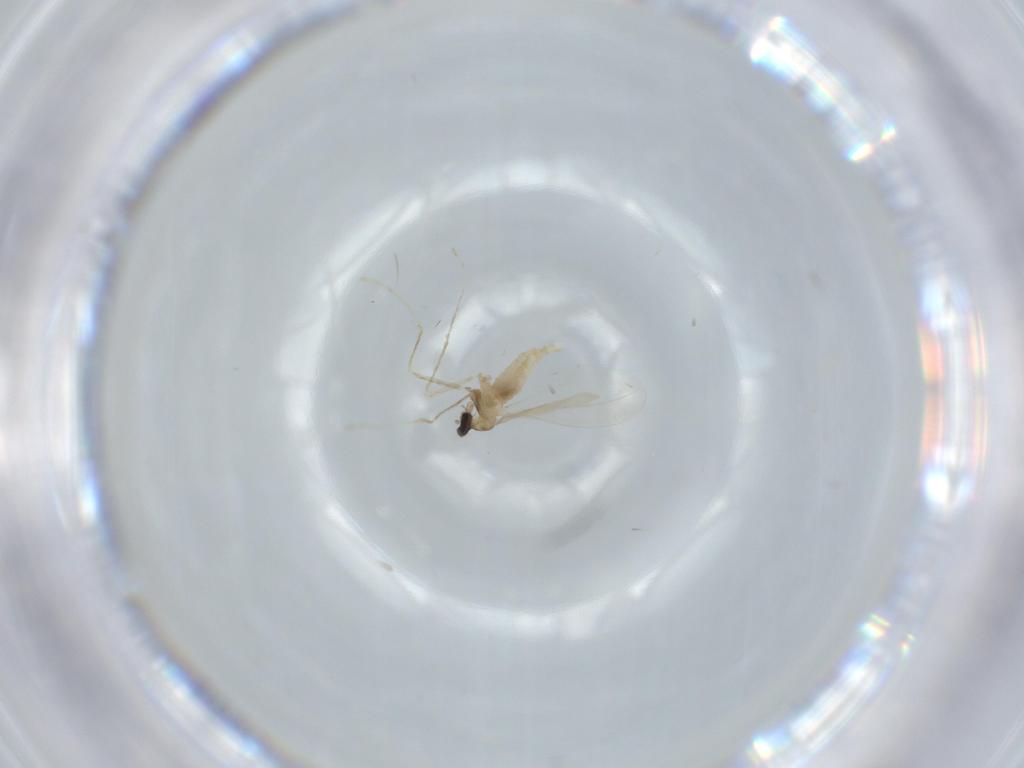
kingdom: Animalia
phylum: Arthropoda
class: Insecta
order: Diptera
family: Cecidomyiidae
